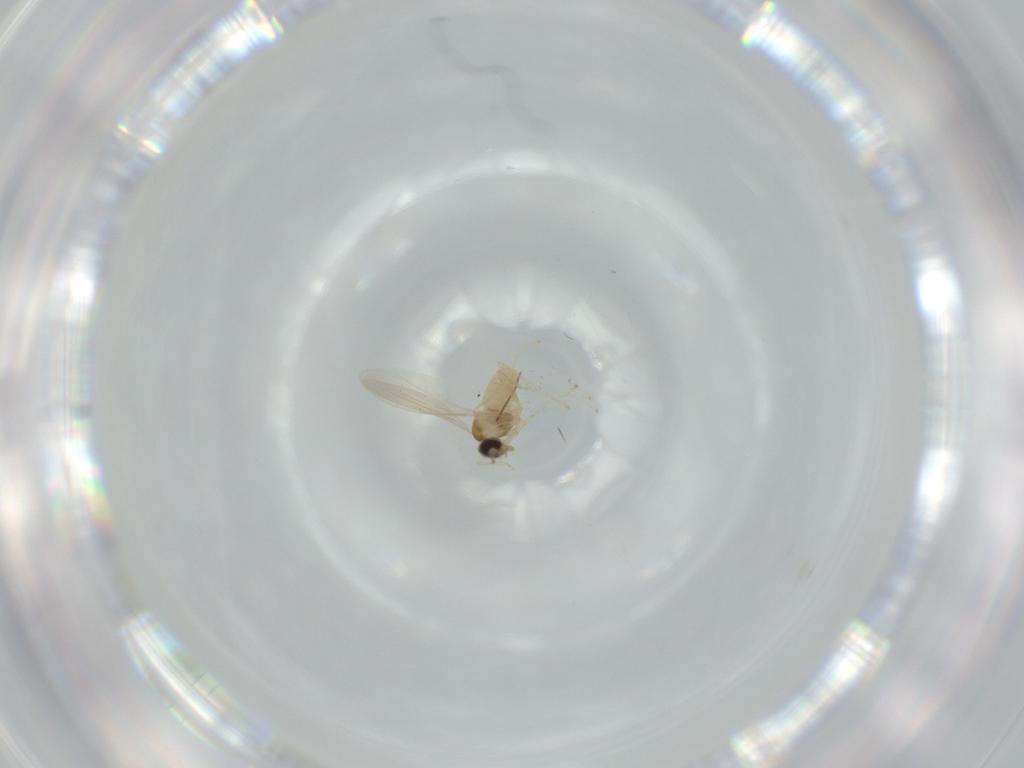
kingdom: Animalia
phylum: Arthropoda
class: Insecta
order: Diptera
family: Cecidomyiidae
